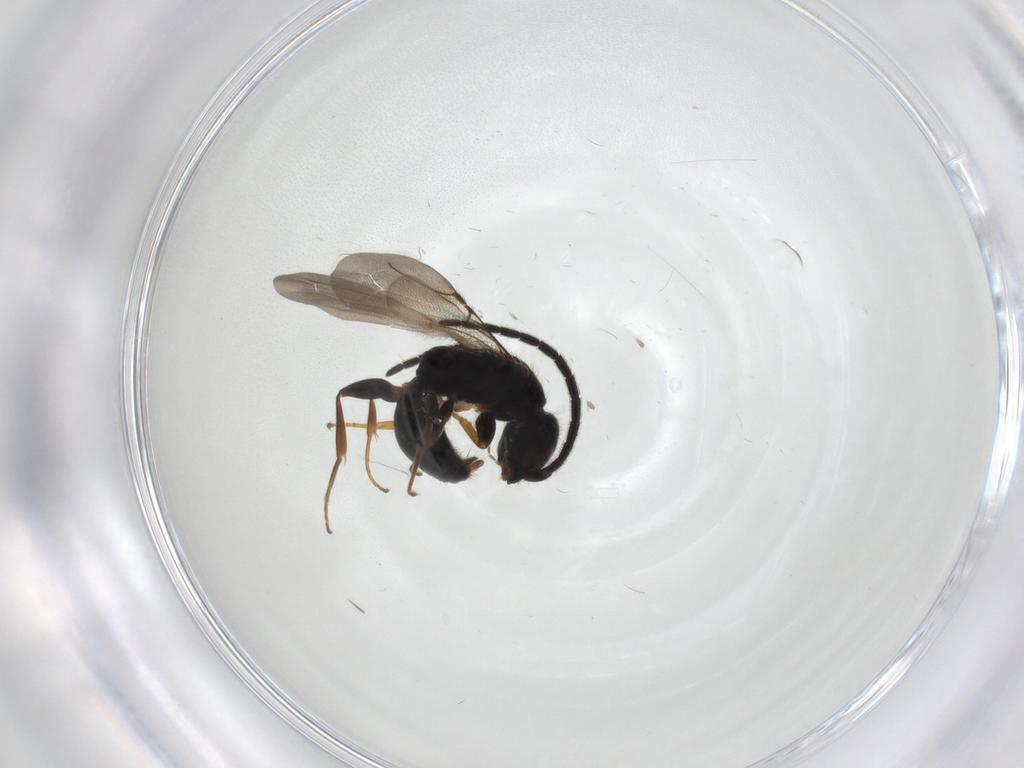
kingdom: Animalia
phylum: Arthropoda
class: Insecta
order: Hymenoptera
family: Bethylidae
